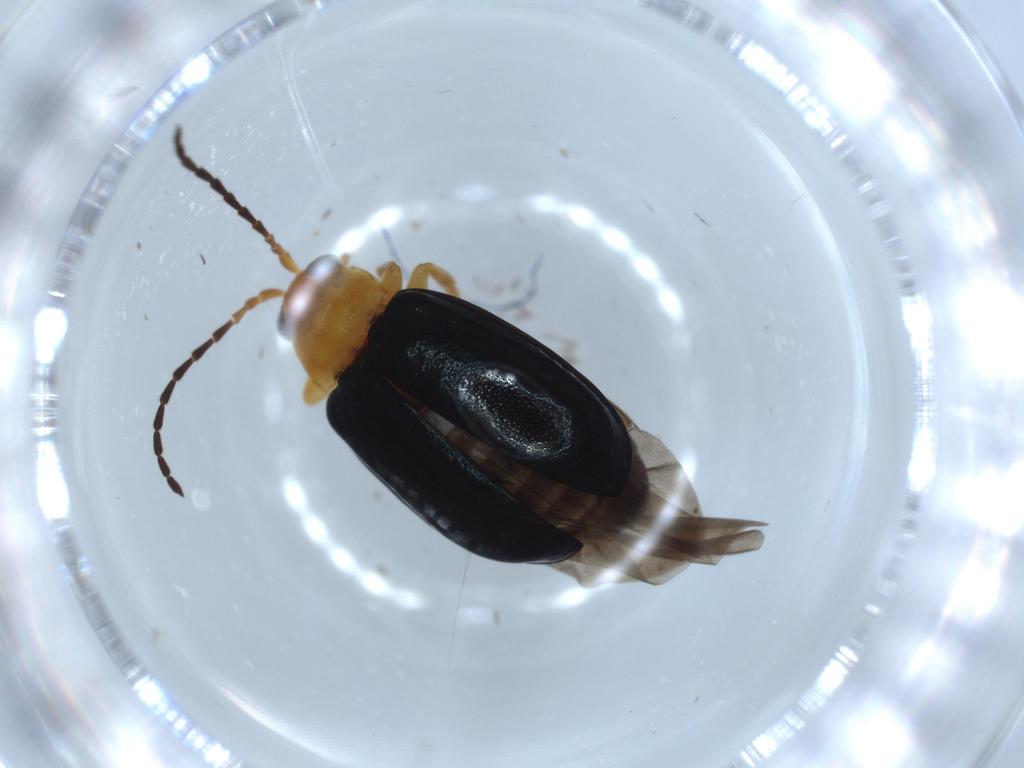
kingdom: Animalia
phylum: Arthropoda
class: Insecta
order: Coleoptera
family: Chrysomelidae
